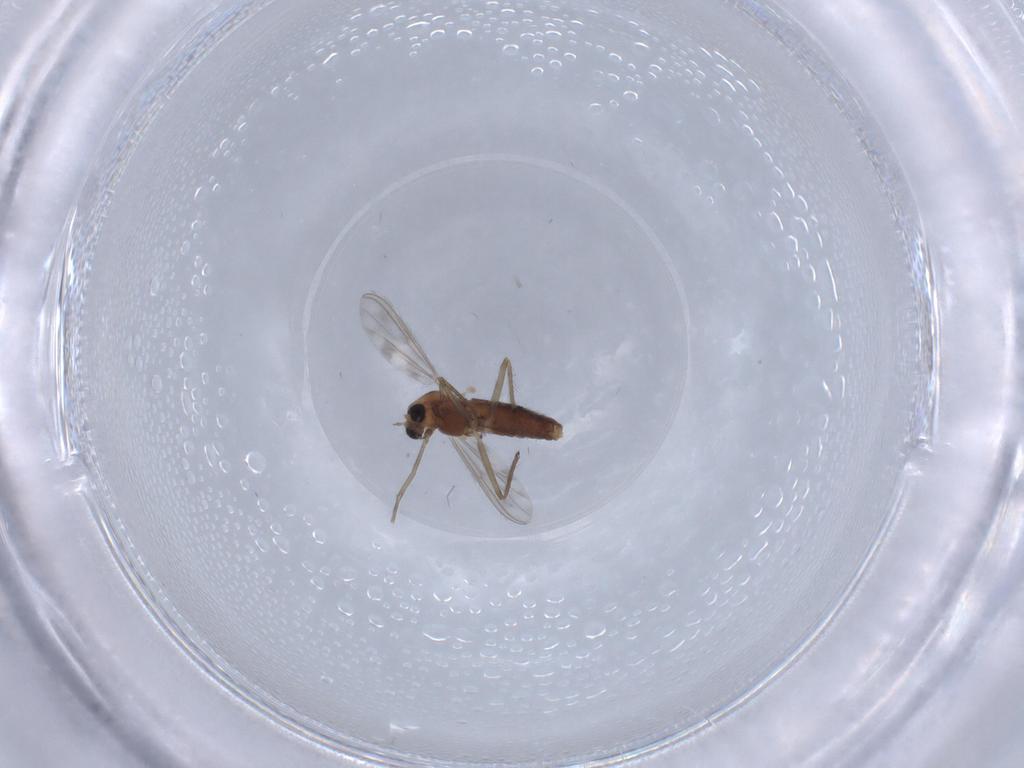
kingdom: Animalia
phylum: Arthropoda
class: Insecta
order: Diptera
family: Chironomidae
